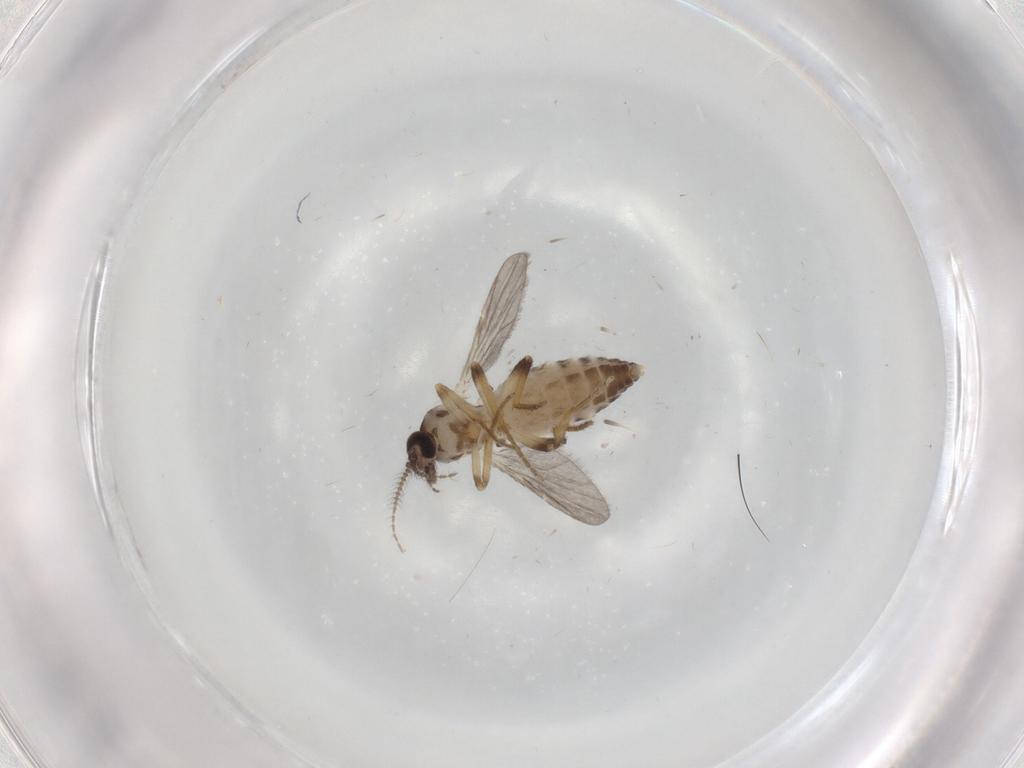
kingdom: Animalia
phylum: Arthropoda
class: Insecta
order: Diptera
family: Ceratopogonidae
